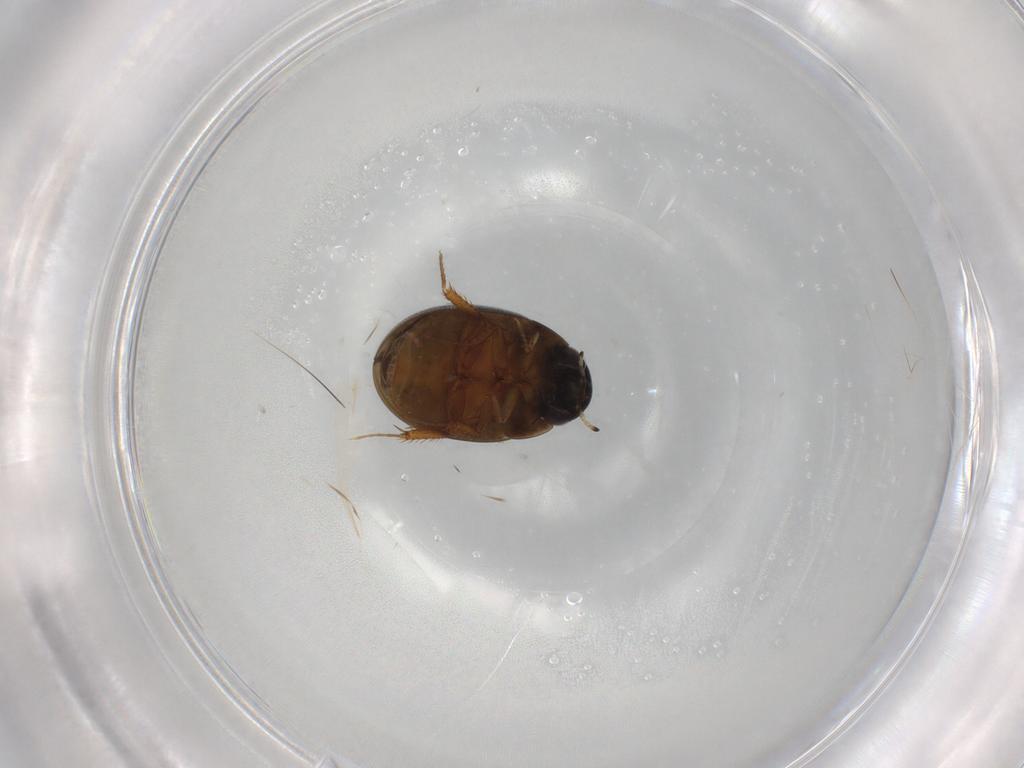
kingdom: Animalia
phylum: Arthropoda
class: Insecta
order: Coleoptera
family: Hydrophilidae
